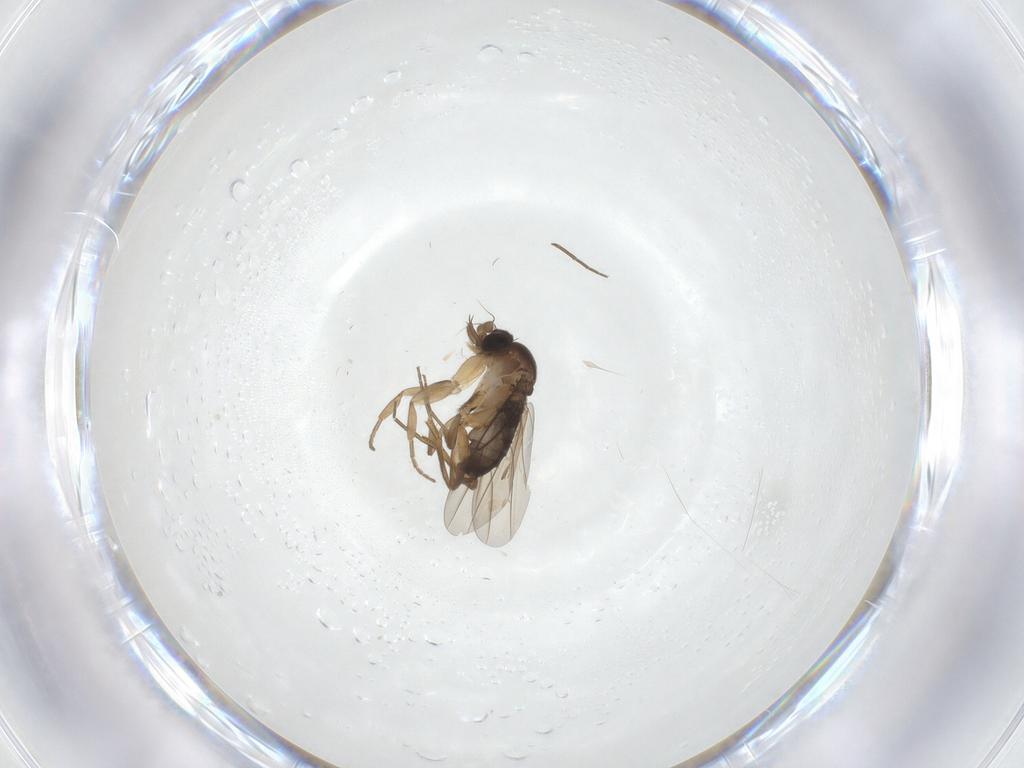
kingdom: Animalia
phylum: Arthropoda
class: Insecta
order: Diptera
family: Phoridae
